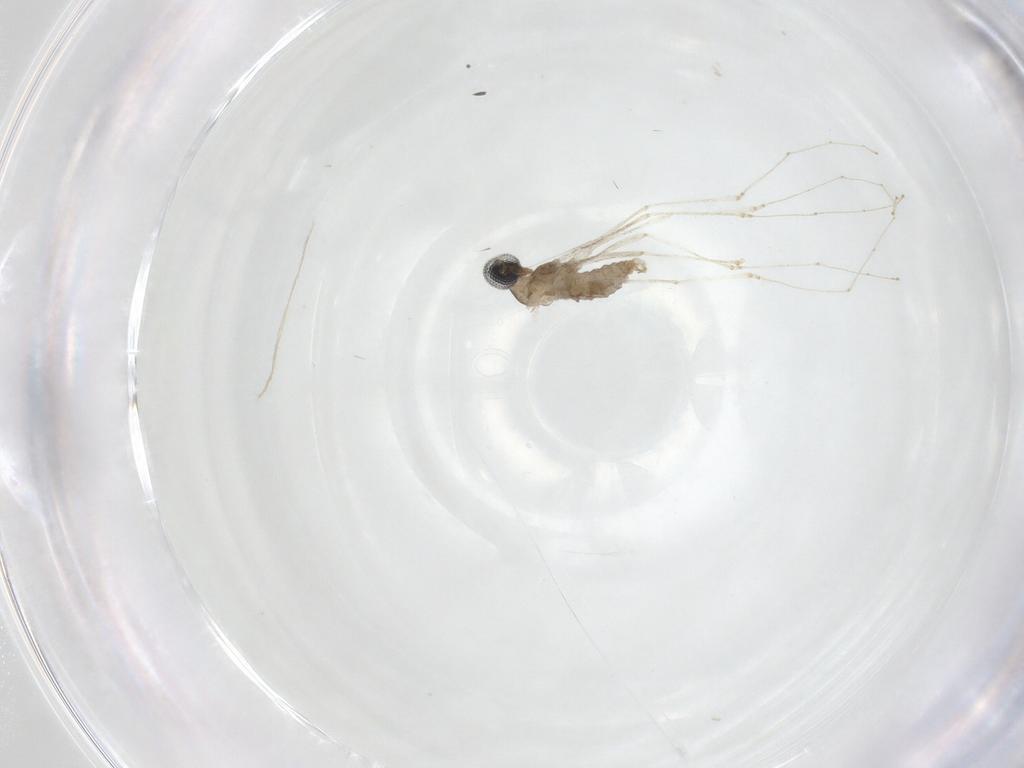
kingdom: Animalia
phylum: Arthropoda
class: Insecta
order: Diptera
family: Cecidomyiidae
